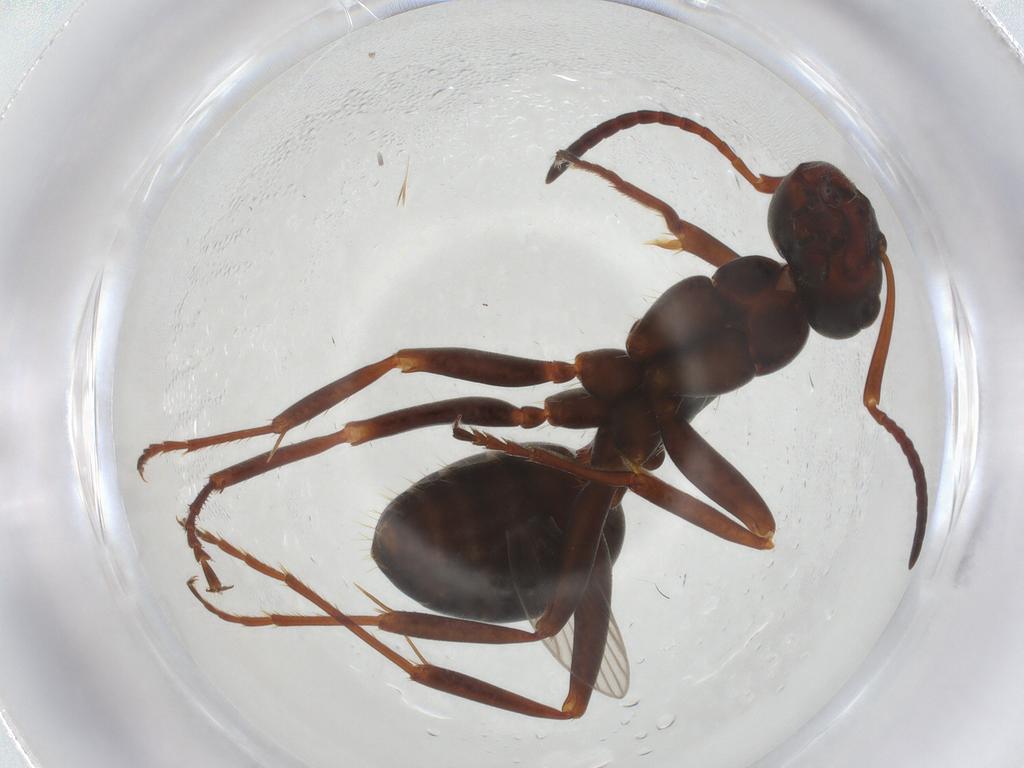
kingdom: Animalia
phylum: Arthropoda
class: Insecta
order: Hymenoptera
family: Formicidae
